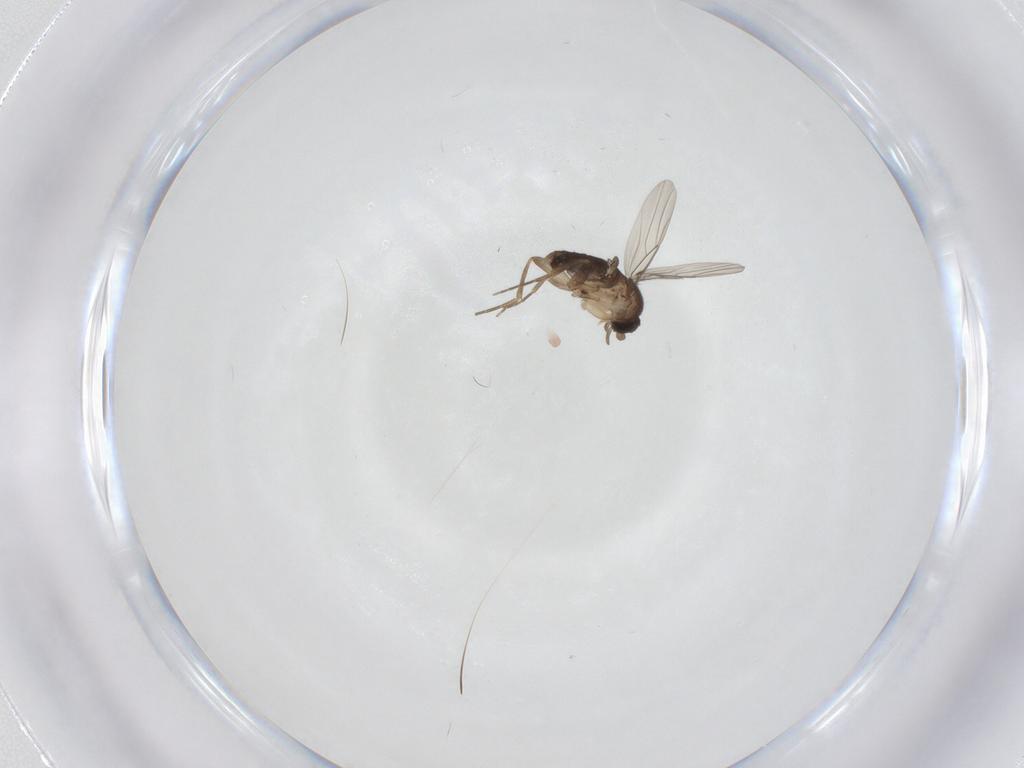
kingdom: Animalia
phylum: Arthropoda
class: Insecta
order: Diptera
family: Phoridae
